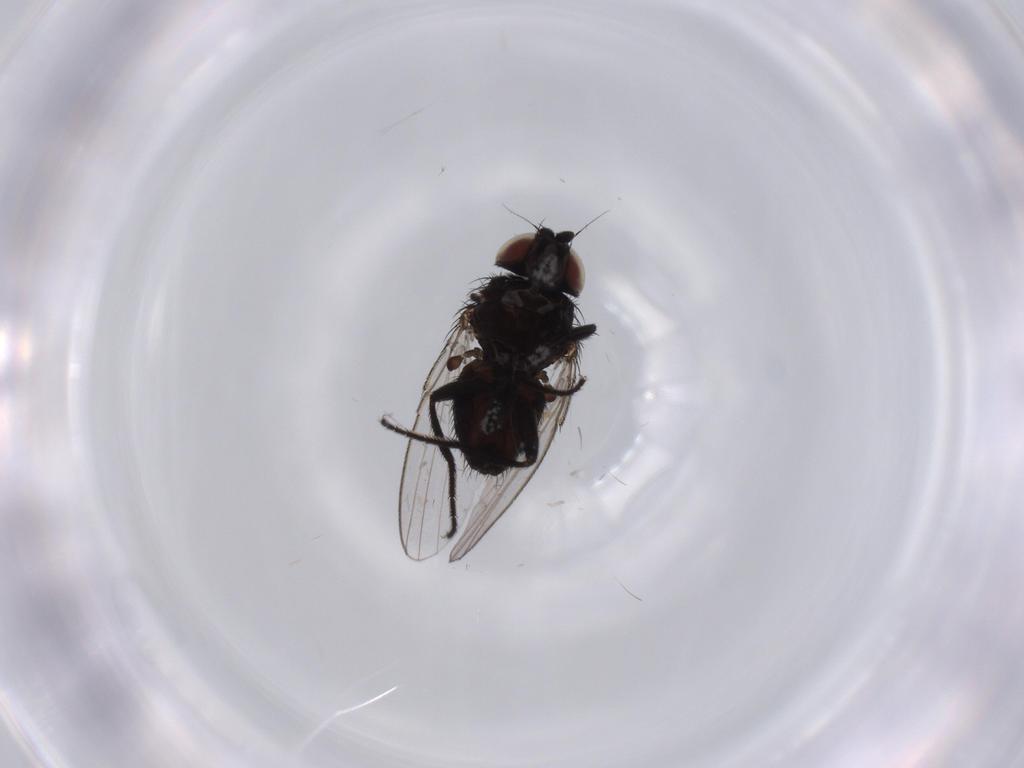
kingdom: Animalia
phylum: Arthropoda
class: Insecta
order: Diptera
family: Milichiidae
